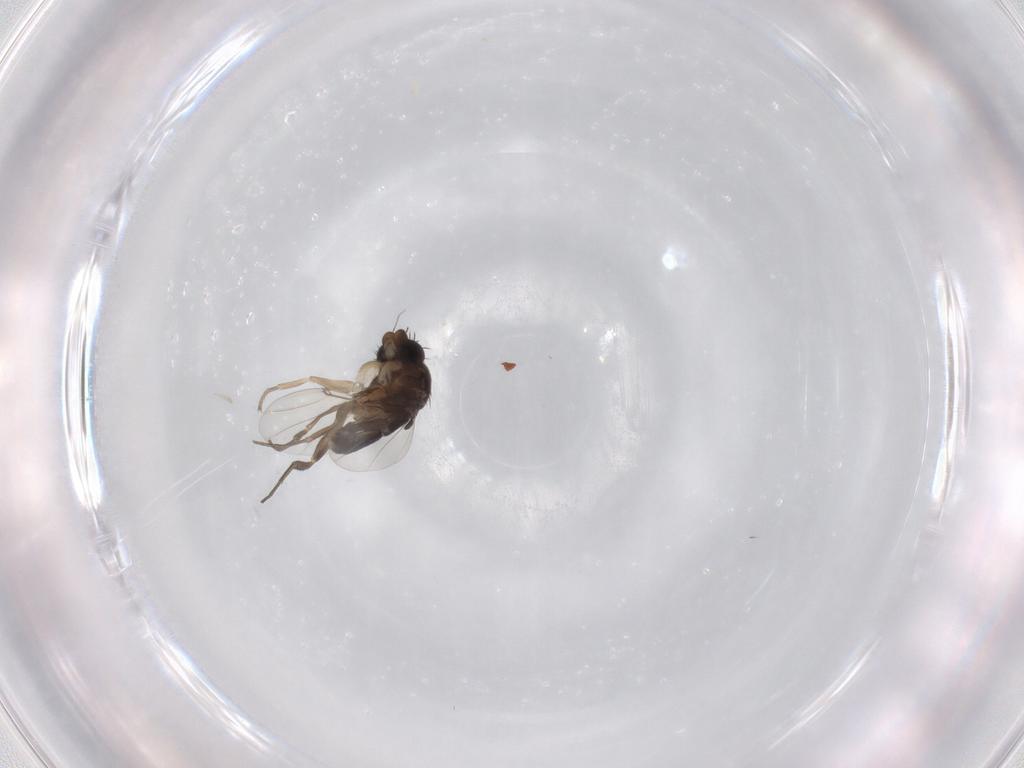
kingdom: Animalia
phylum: Arthropoda
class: Insecta
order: Diptera
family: Phoridae
